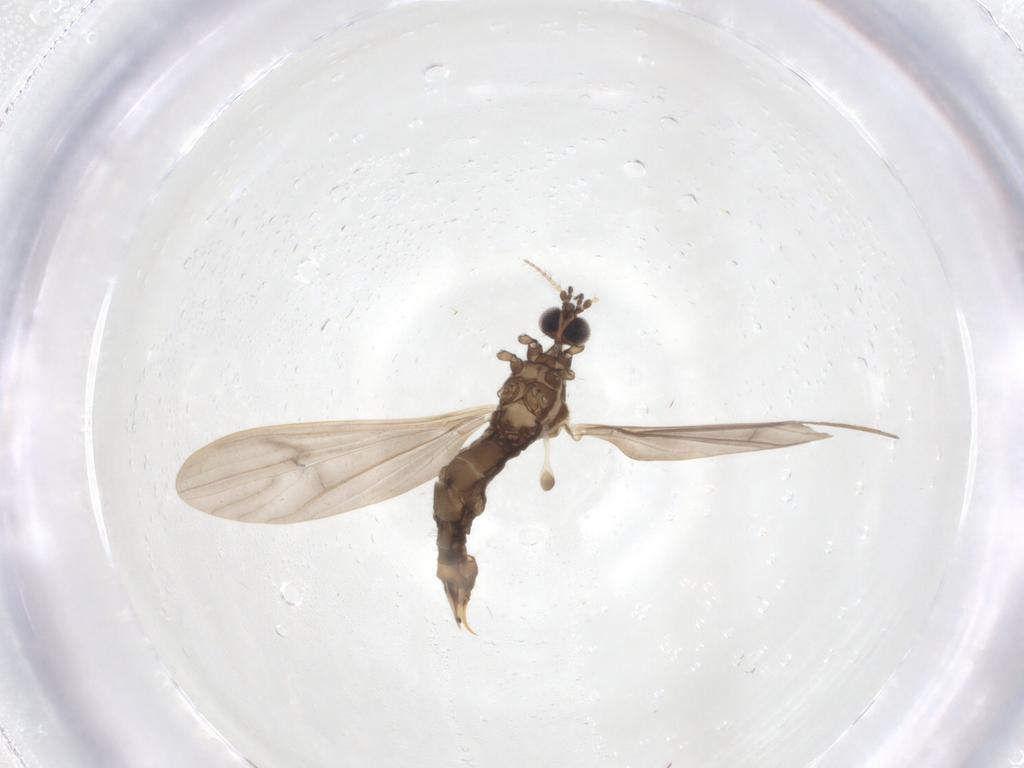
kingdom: Animalia
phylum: Arthropoda
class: Insecta
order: Diptera
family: Limoniidae
